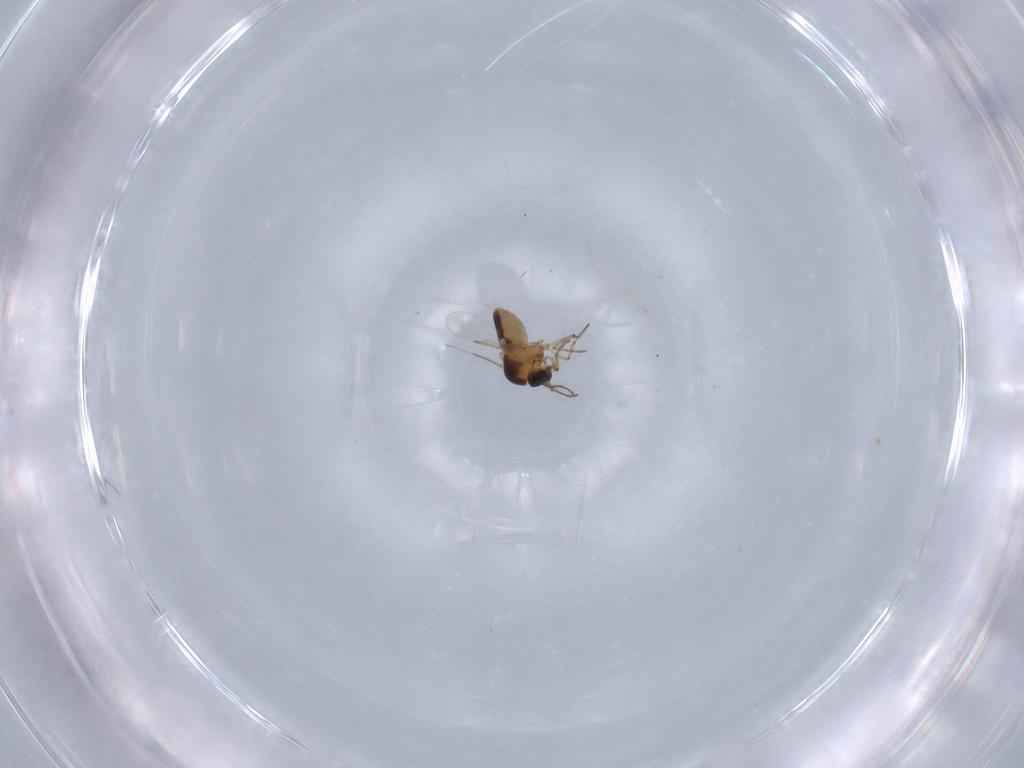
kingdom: Animalia
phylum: Arthropoda
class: Insecta
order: Diptera
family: Ceratopogonidae
